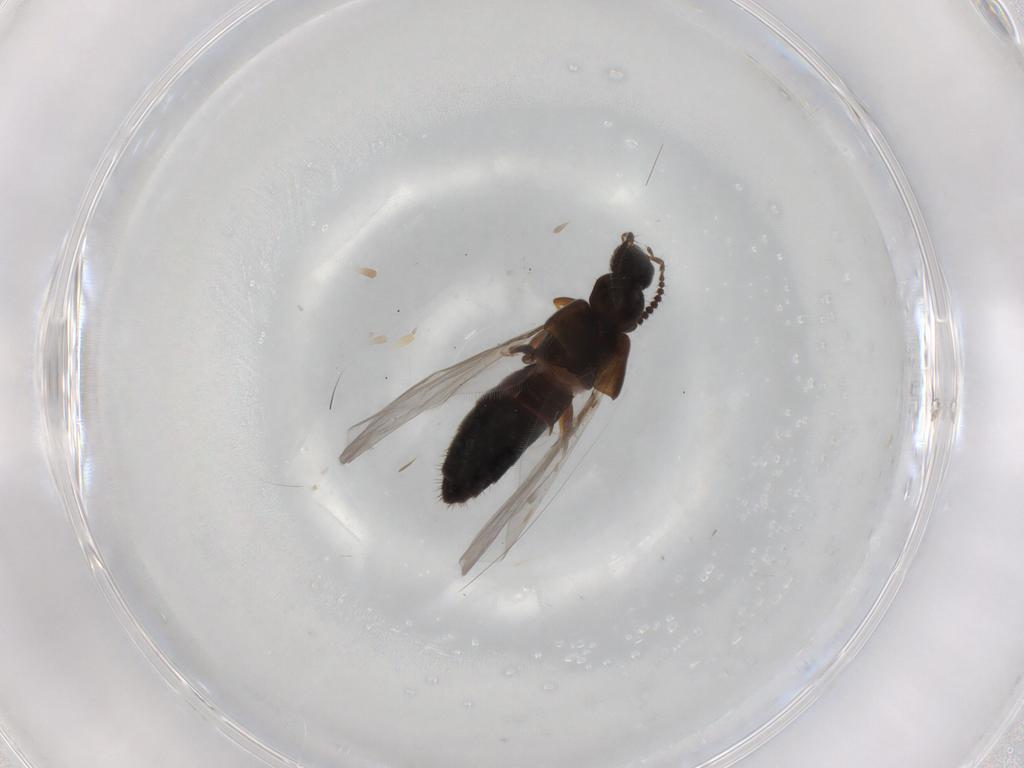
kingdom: Animalia
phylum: Arthropoda
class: Insecta
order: Coleoptera
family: Staphylinidae
